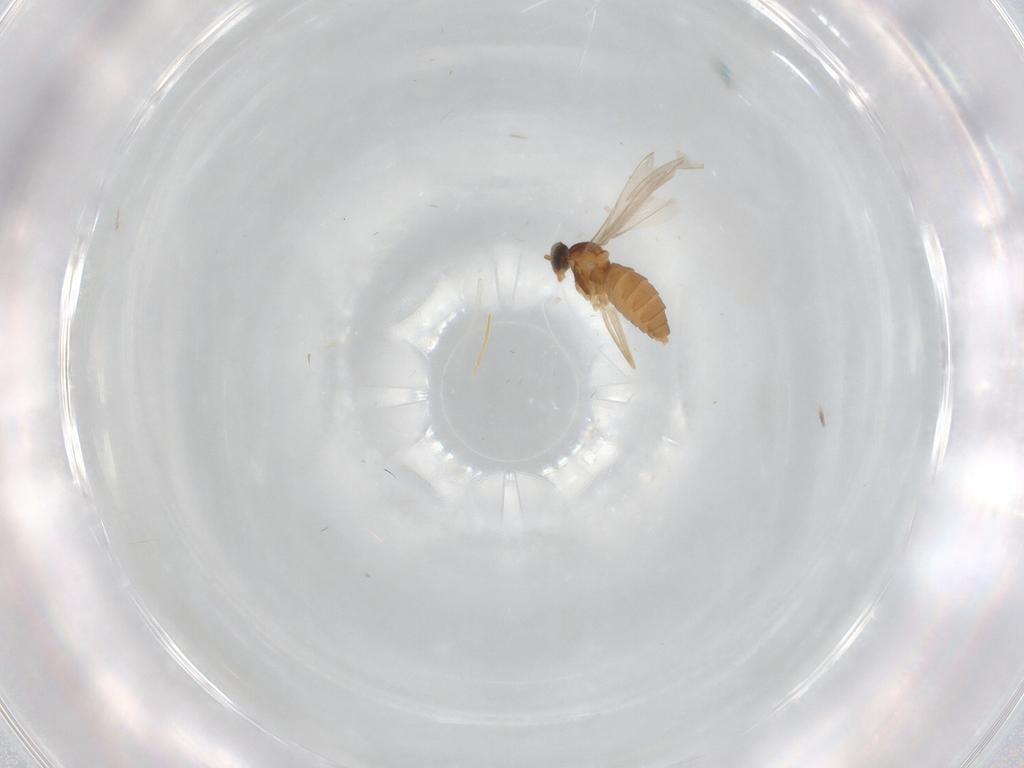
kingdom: Animalia
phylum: Arthropoda
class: Insecta
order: Diptera
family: Cecidomyiidae
